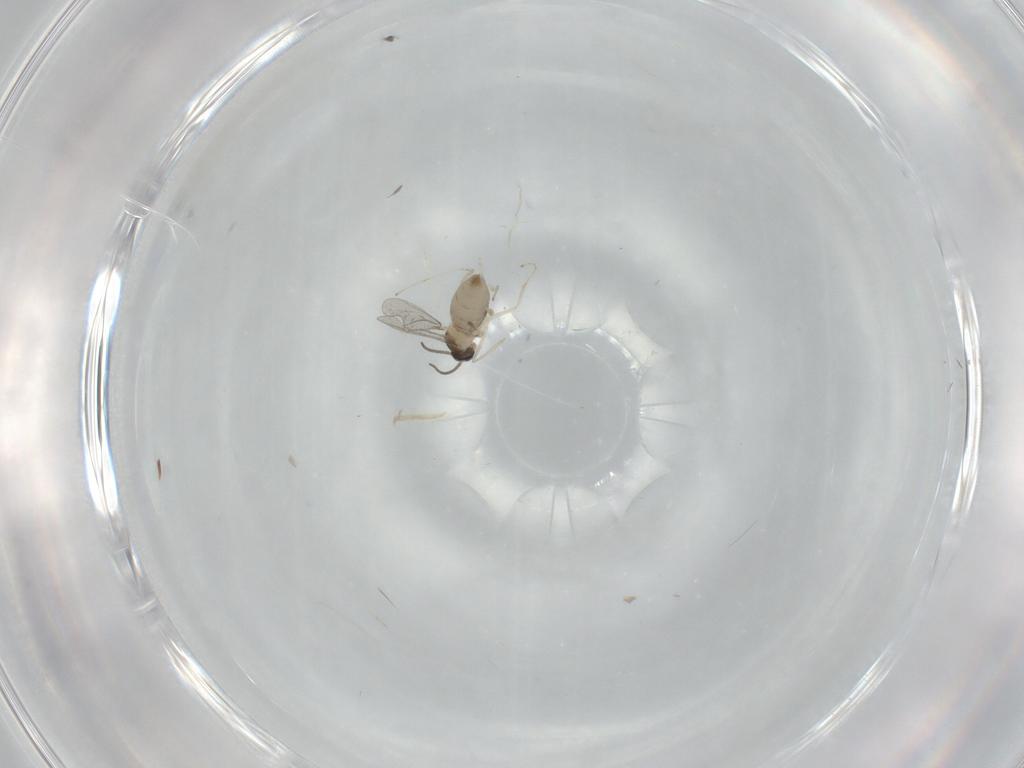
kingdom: Animalia
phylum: Arthropoda
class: Insecta
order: Diptera
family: Cecidomyiidae
